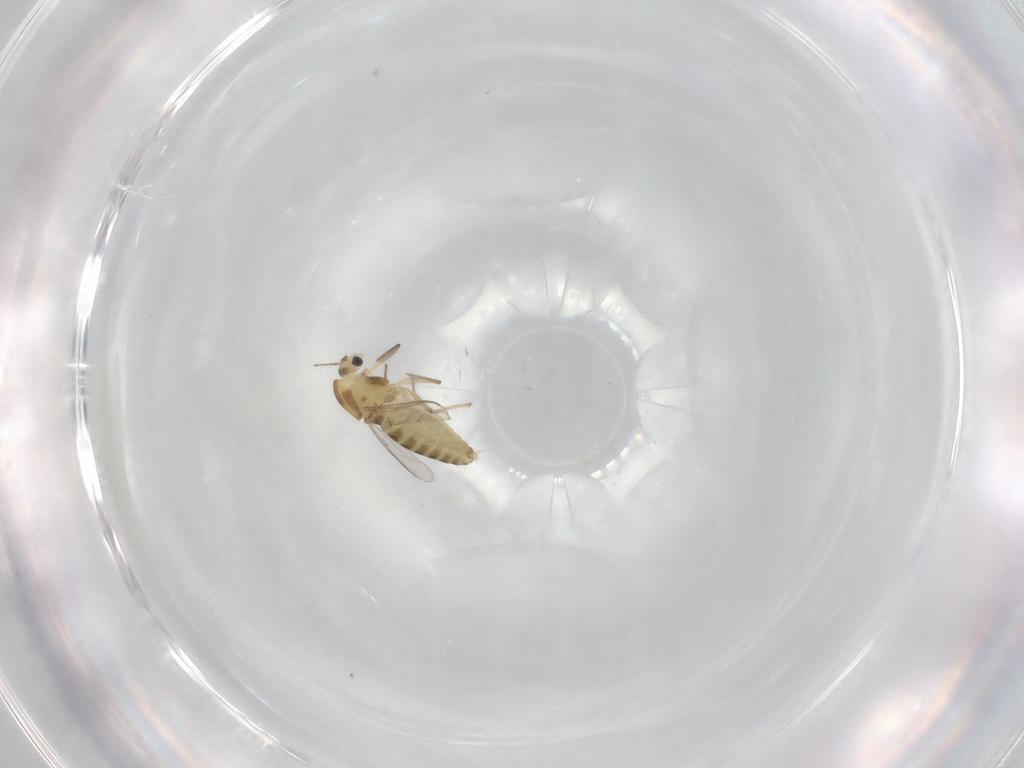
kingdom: Animalia
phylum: Arthropoda
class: Insecta
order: Diptera
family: Chironomidae
